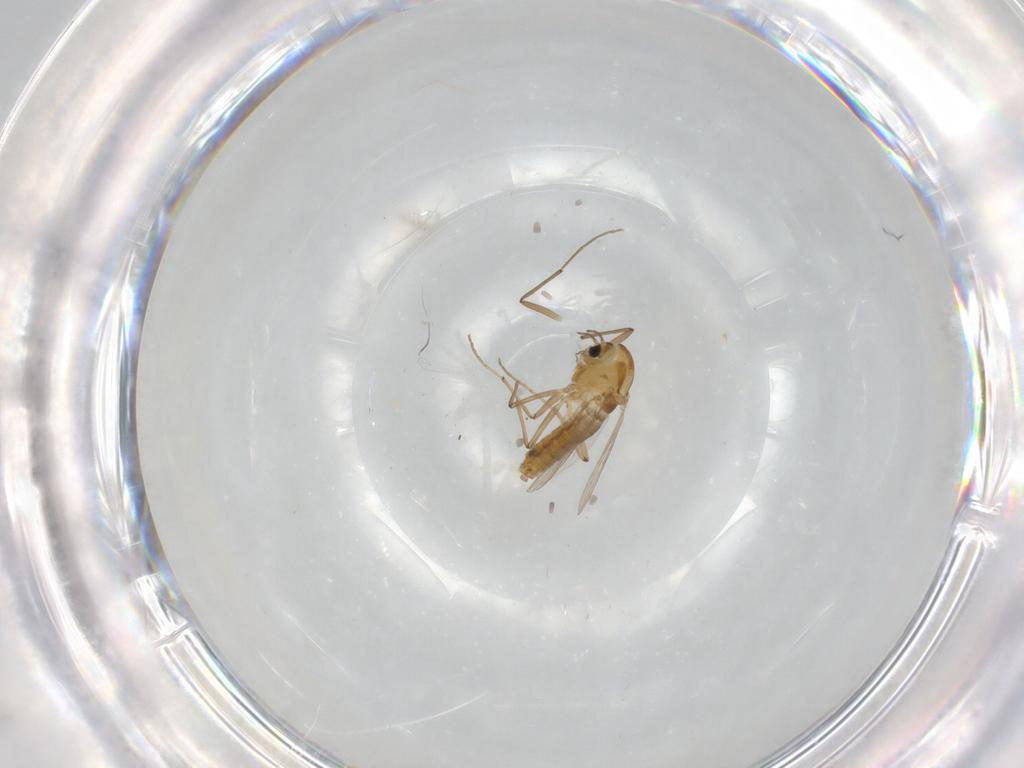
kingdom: Animalia
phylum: Arthropoda
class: Insecta
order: Diptera
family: Chironomidae
